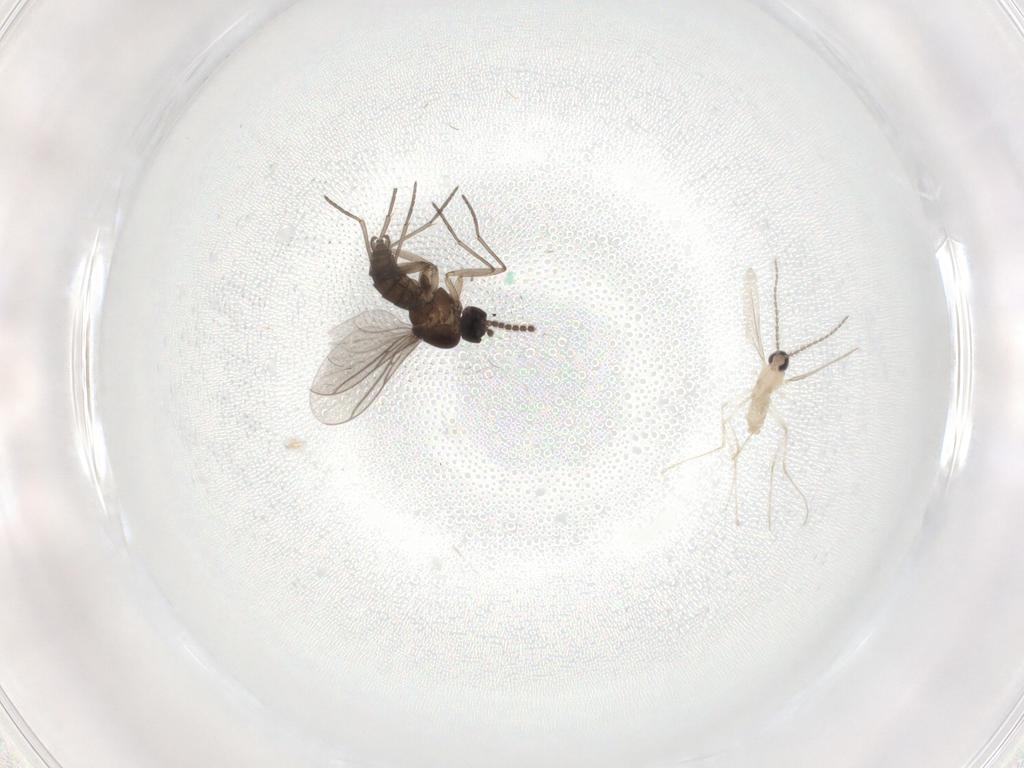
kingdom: Animalia
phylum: Arthropoda
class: Insecta
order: Diptera
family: Cecidomyiidae
